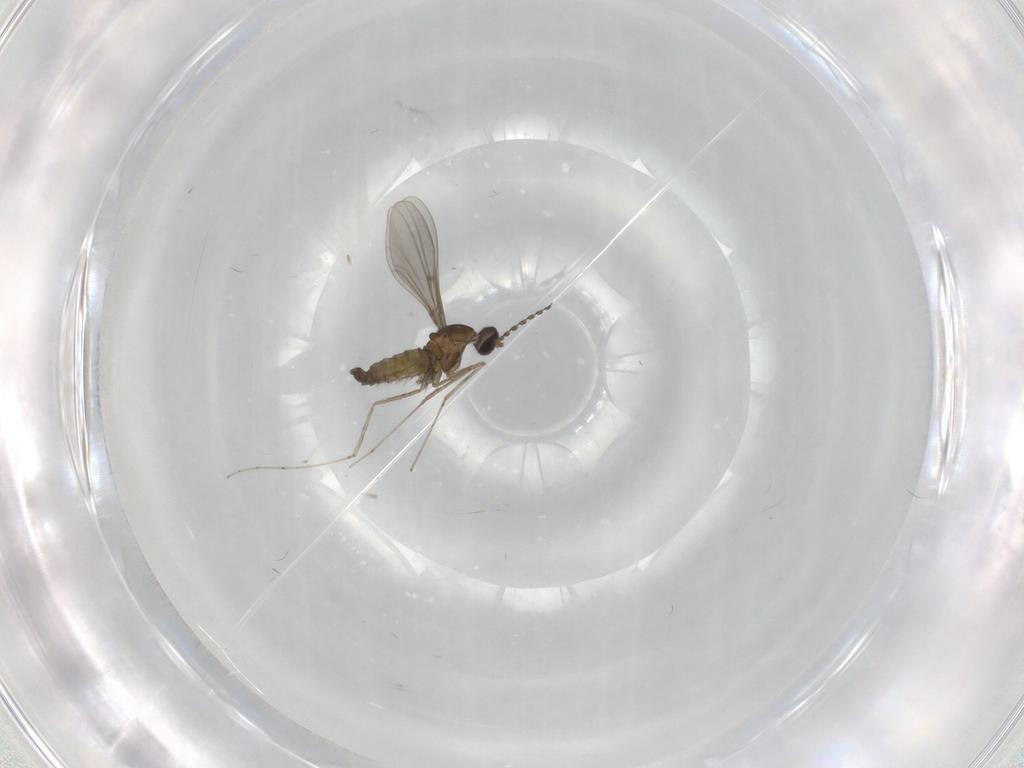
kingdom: Animalia
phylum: Arthropoda
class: Insecta
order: Diptera
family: Cecidomyiidae
